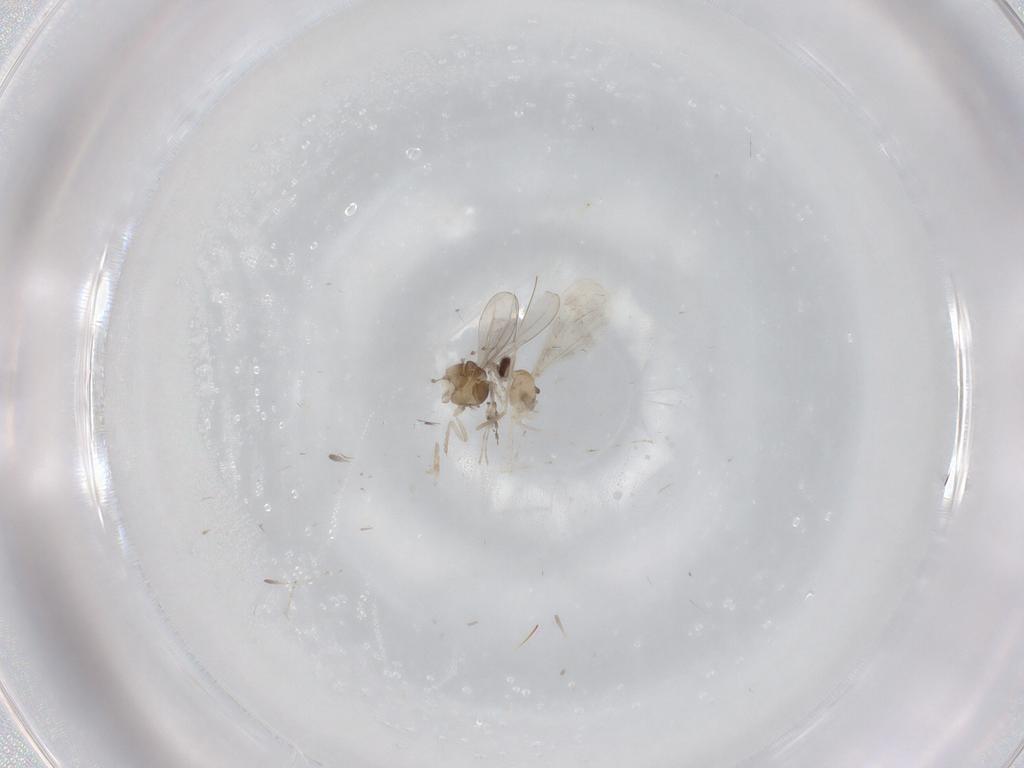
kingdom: Animalia
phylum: Arthropoda
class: Insecta
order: Diptera
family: Cecidomyiidae
